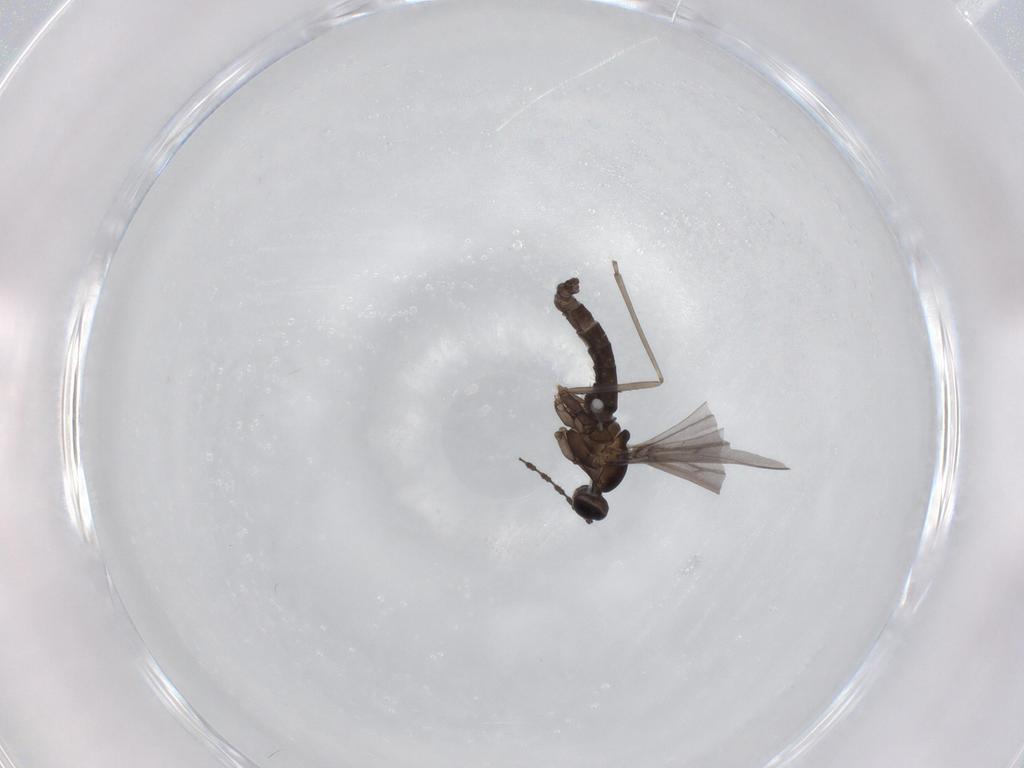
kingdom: Animalia
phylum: Arthropoda
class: Insecta
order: Diptera
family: Cecidomyiidae
